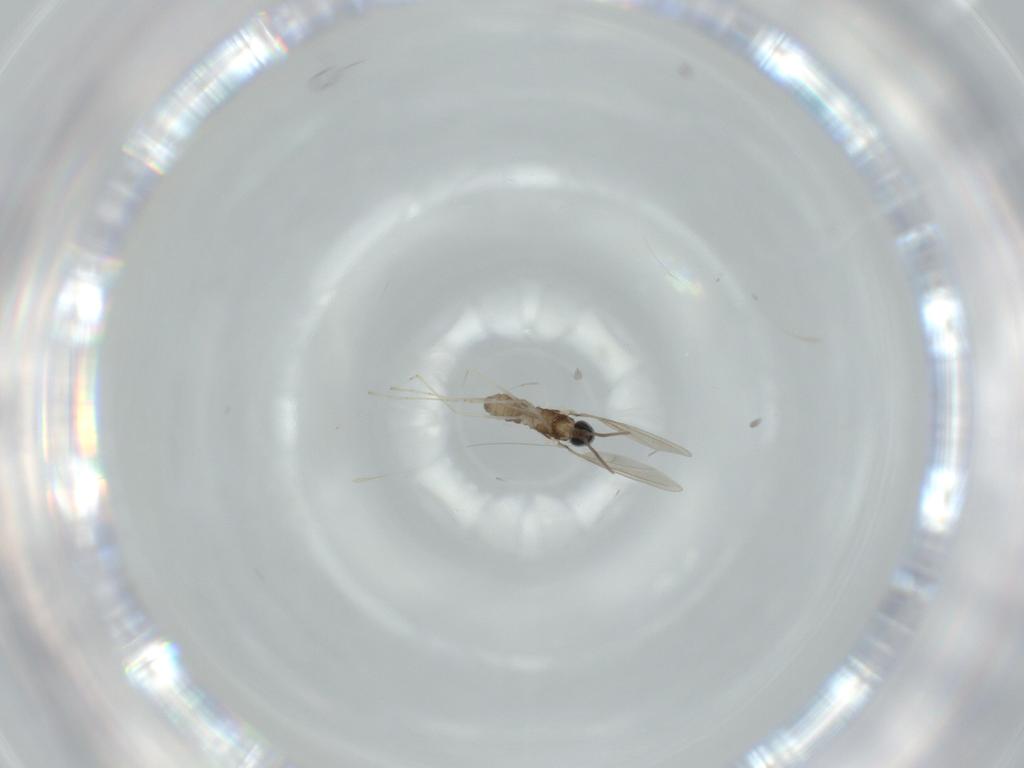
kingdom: Animalia
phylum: Arthropoda
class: Insecta
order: Diptera
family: Cecidomyiidae
